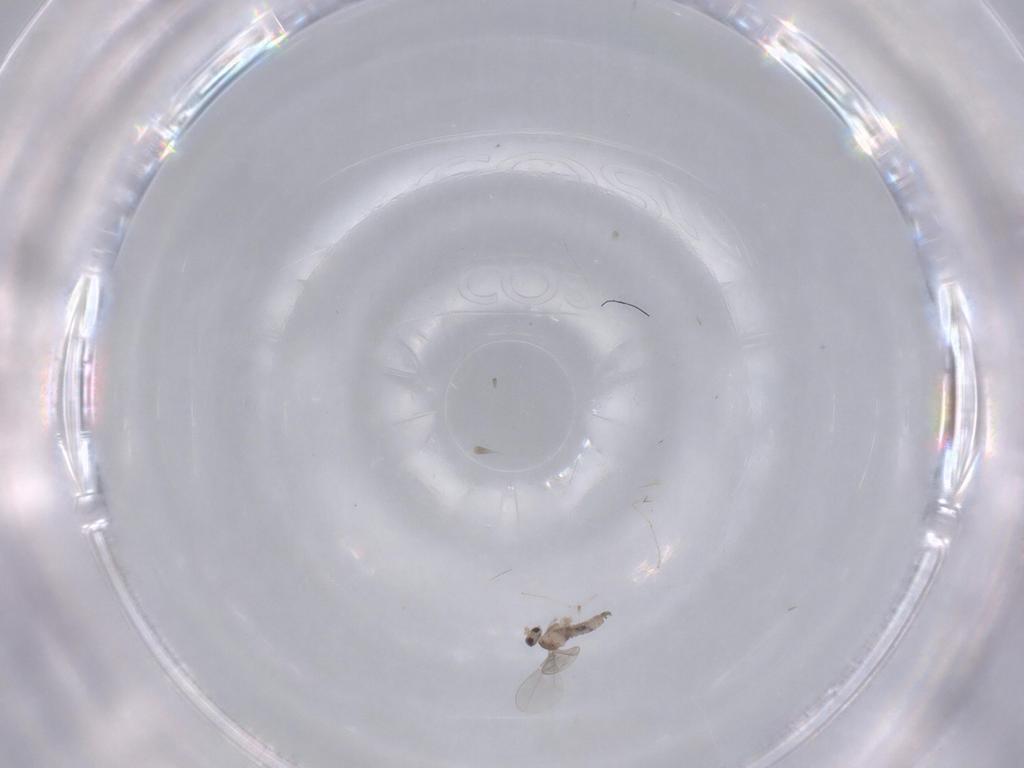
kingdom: Animalia
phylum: Arthropoda
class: Insecta
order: Diptera
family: Cecidomyiidae
